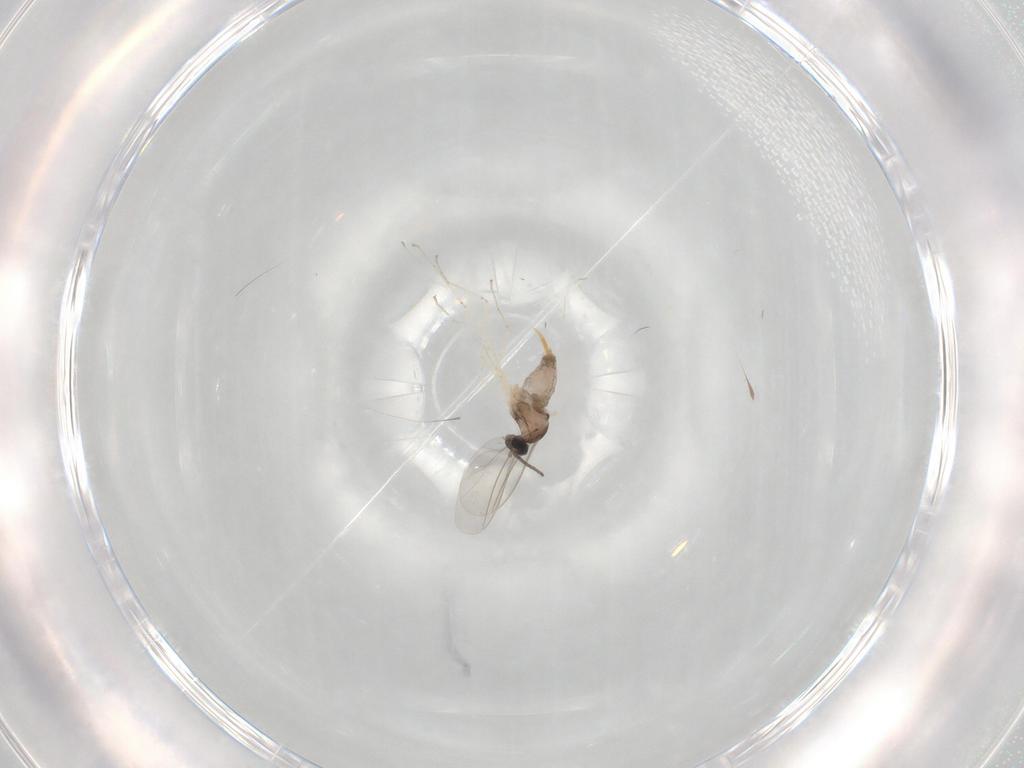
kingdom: Animalia
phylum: Arthropoda
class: Insecta
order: Diptera
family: Cecidomyiidae
